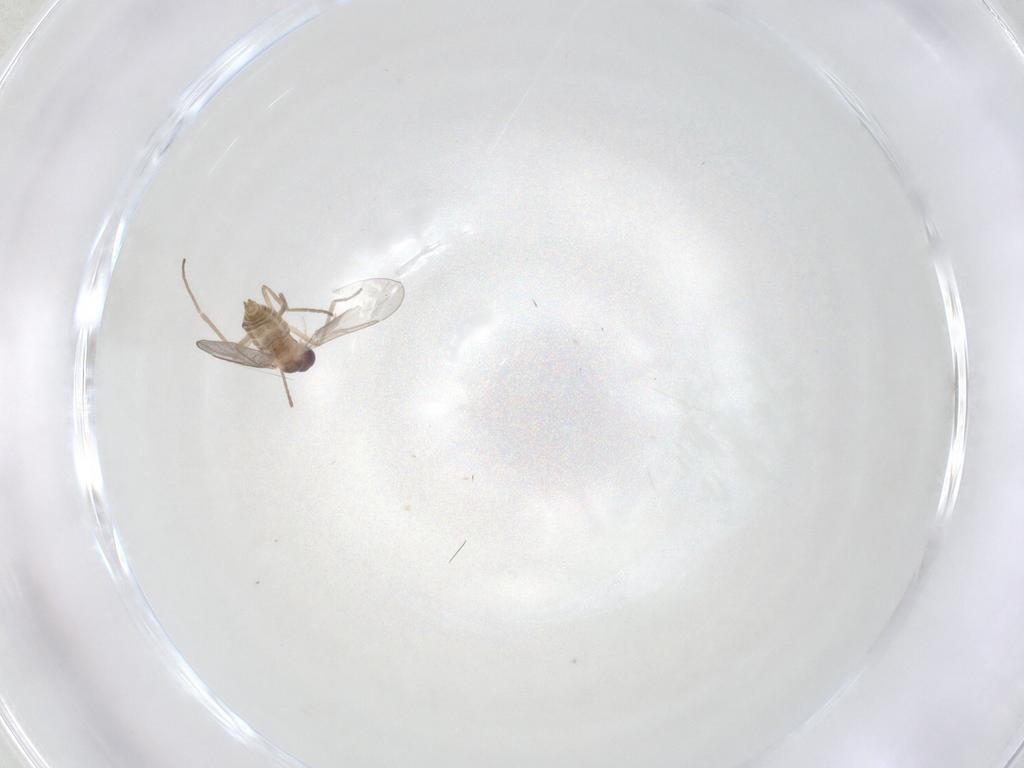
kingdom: Animalia
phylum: Arthropoda
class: Insecta
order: Diptera
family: Cecidomyiidae
